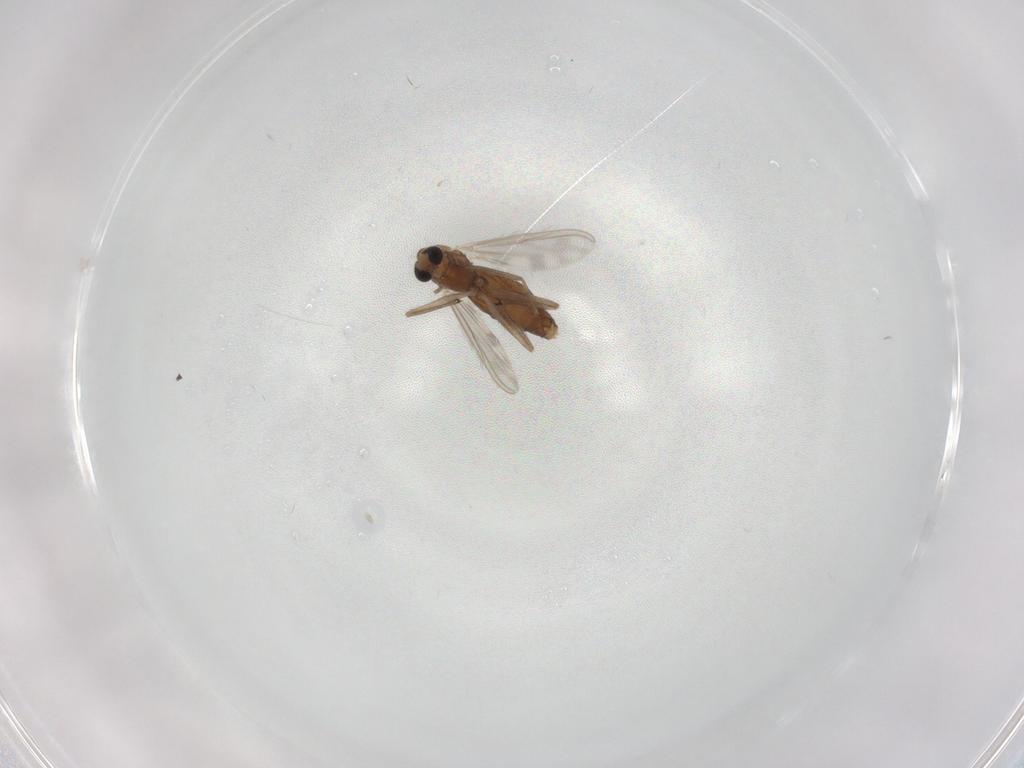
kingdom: Animalia
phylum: Arthropoda
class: Insecta
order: Diptera
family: Chironomidae
